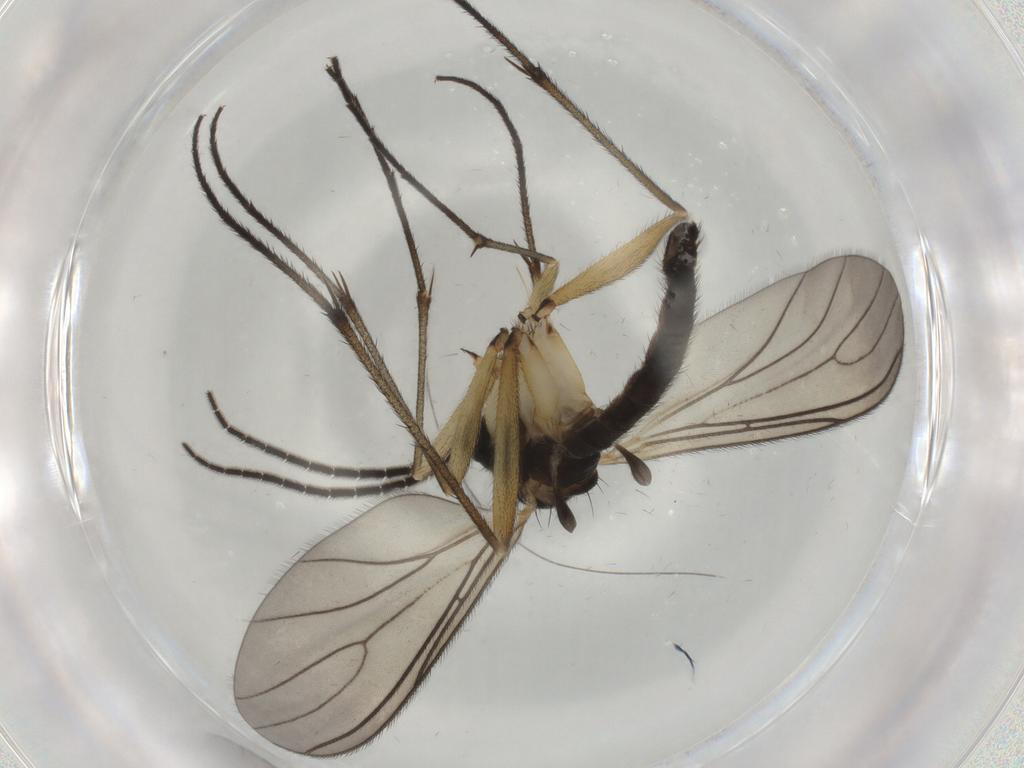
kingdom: Animalia
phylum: Arthropoda
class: Insecta
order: Diptera
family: Sciaridae
